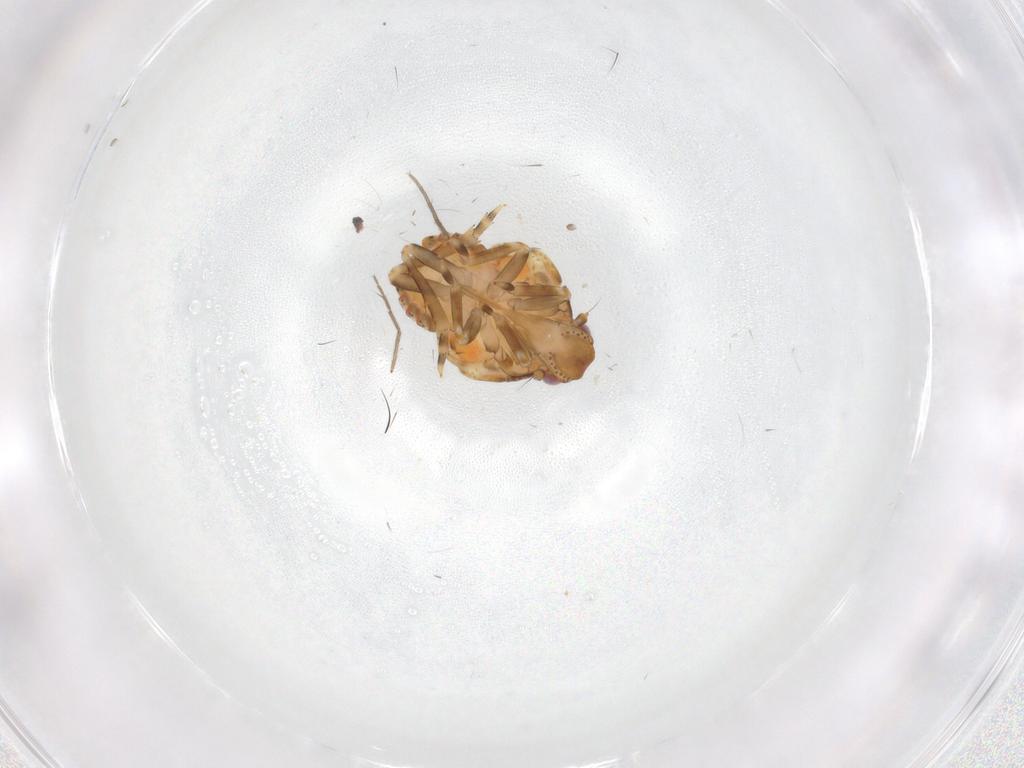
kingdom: Animalia
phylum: Arthropoda
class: Insecta
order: Hemiptera
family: Flatidae
